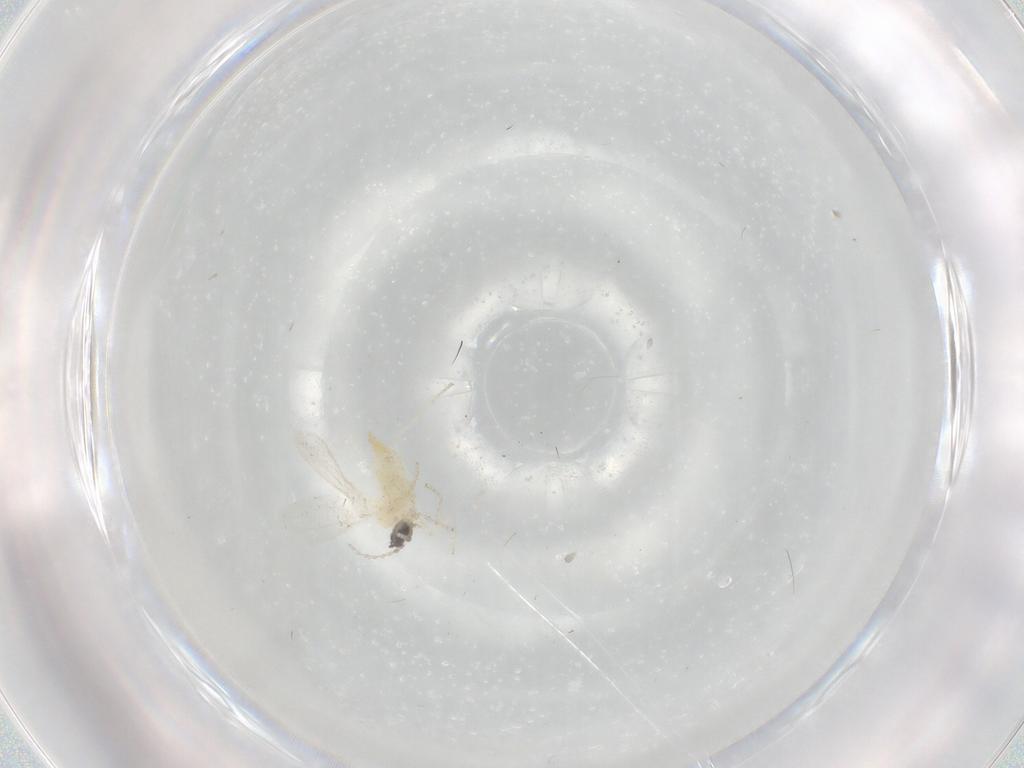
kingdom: Animalia
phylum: Arthropoda
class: Insecta
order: Diptera
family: Cecidomyiidae
